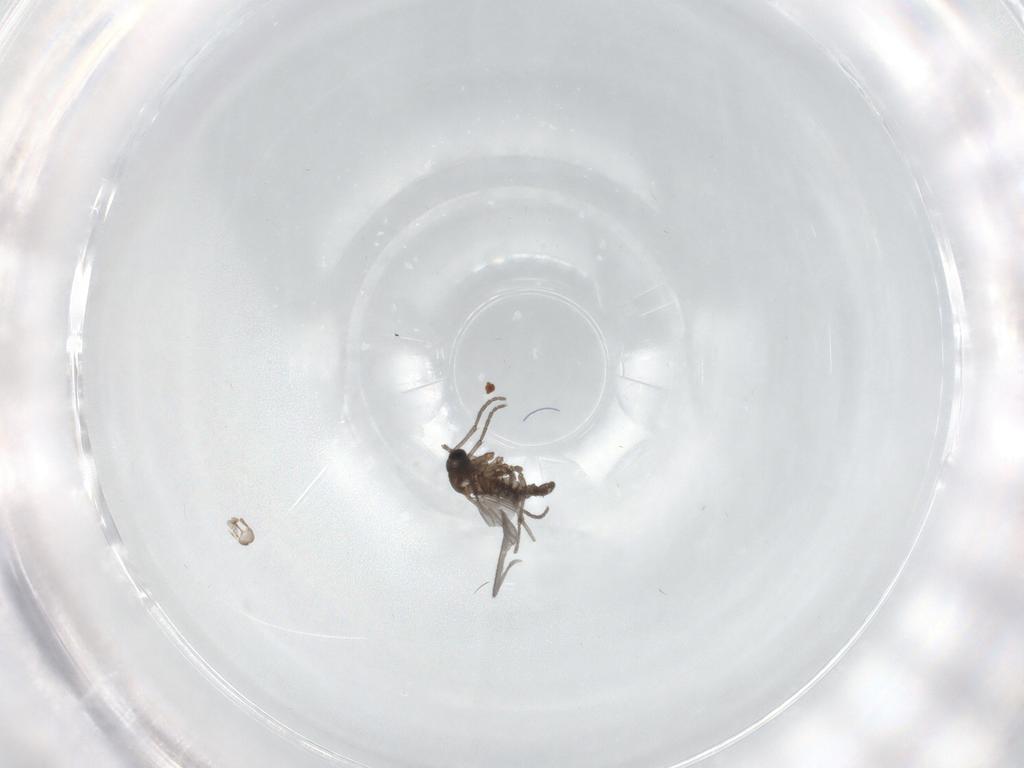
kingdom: Animalia
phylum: Arthropoda
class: Insecta
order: Diptera
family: Sciaridae
